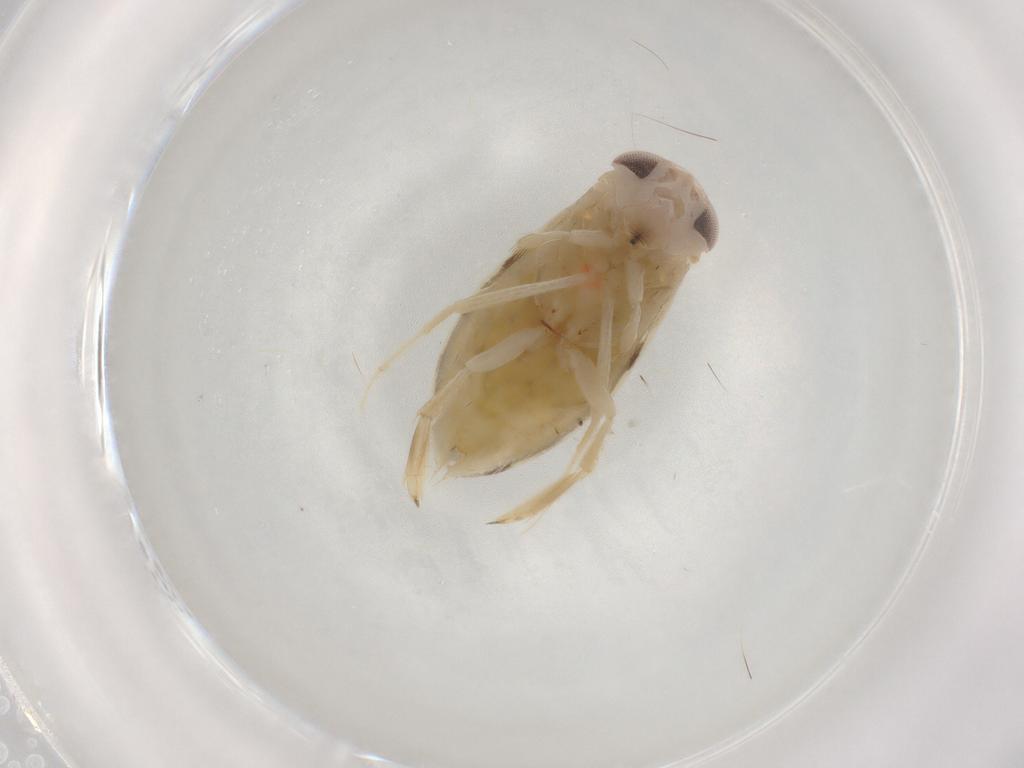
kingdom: Animalia
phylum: Arthropoda
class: Insecta
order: Hemiptera
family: Corixidae
